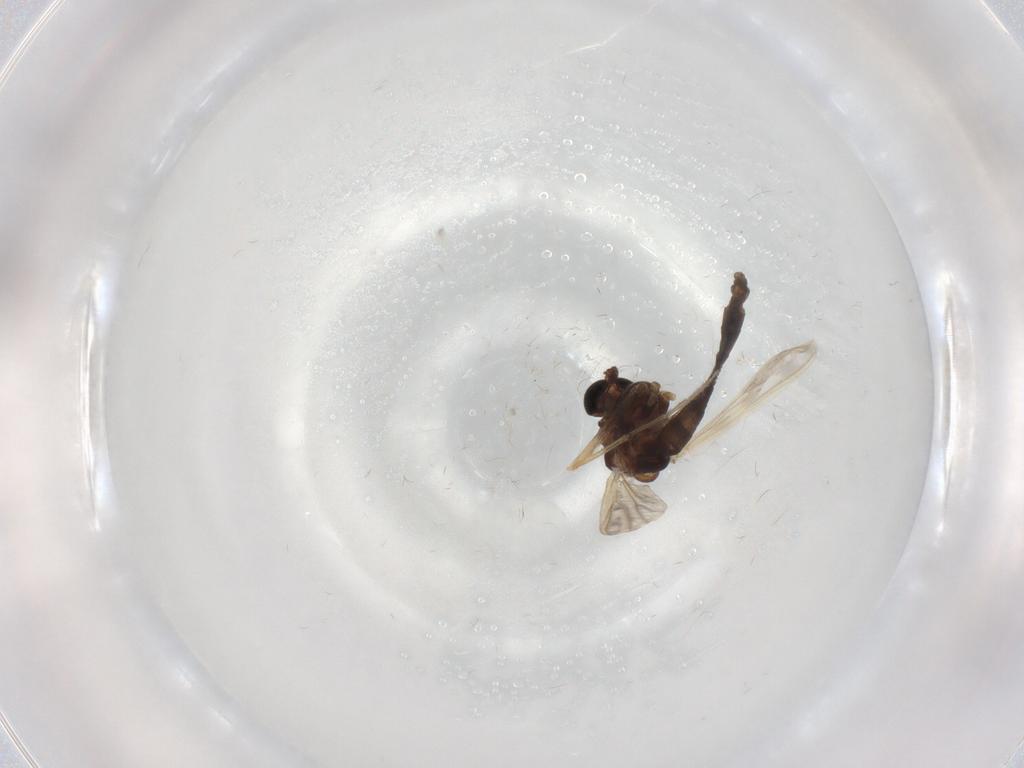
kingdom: Animalia
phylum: Arthropoda
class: Insecta
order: Diptera
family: Chironomidae
